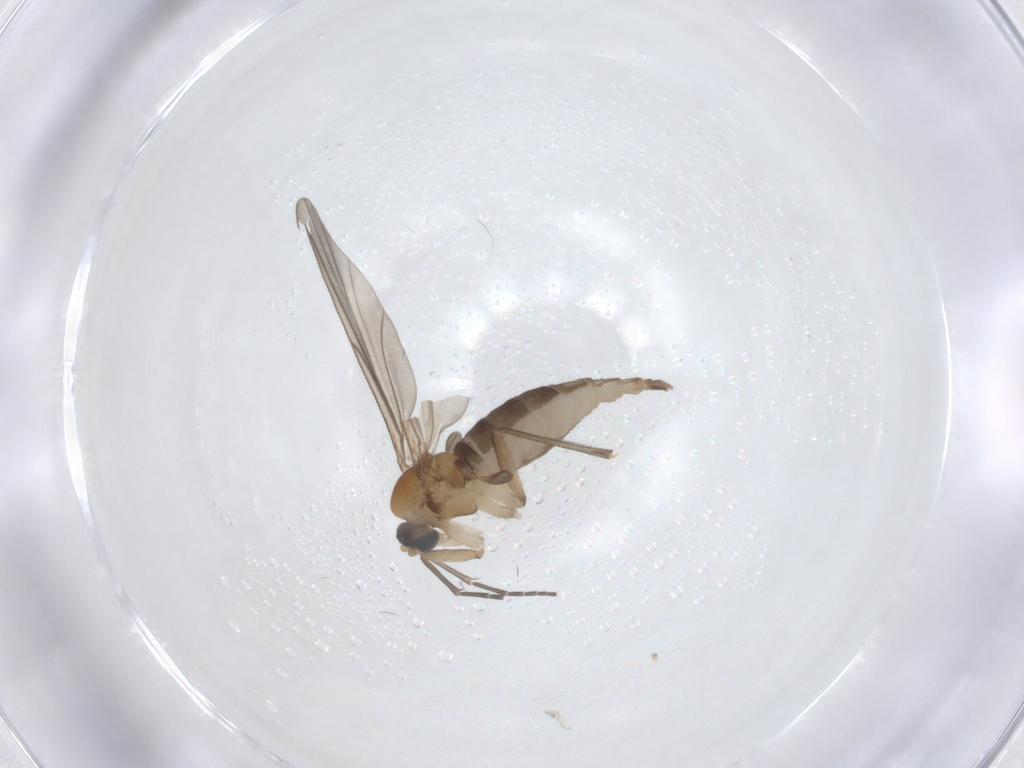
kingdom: Animalia
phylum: Arthropoda
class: Insecta
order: Diptera
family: Sciaridae
